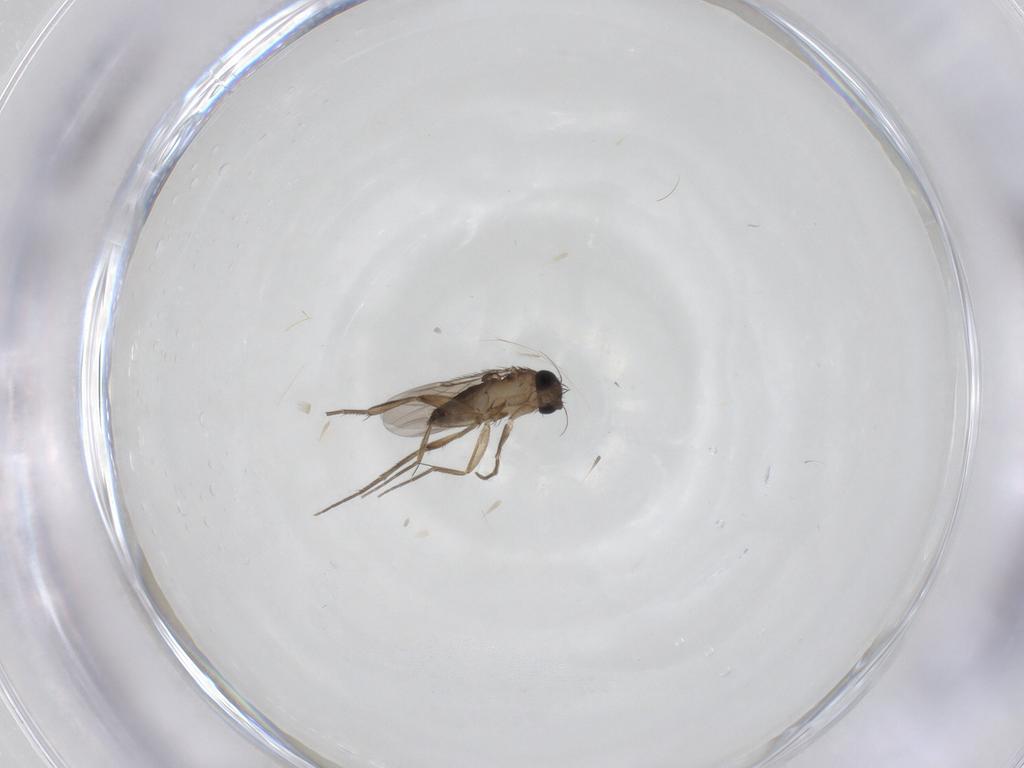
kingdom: Animalia
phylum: Arthropoda
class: Insecta
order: Diptera
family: Phoridae
